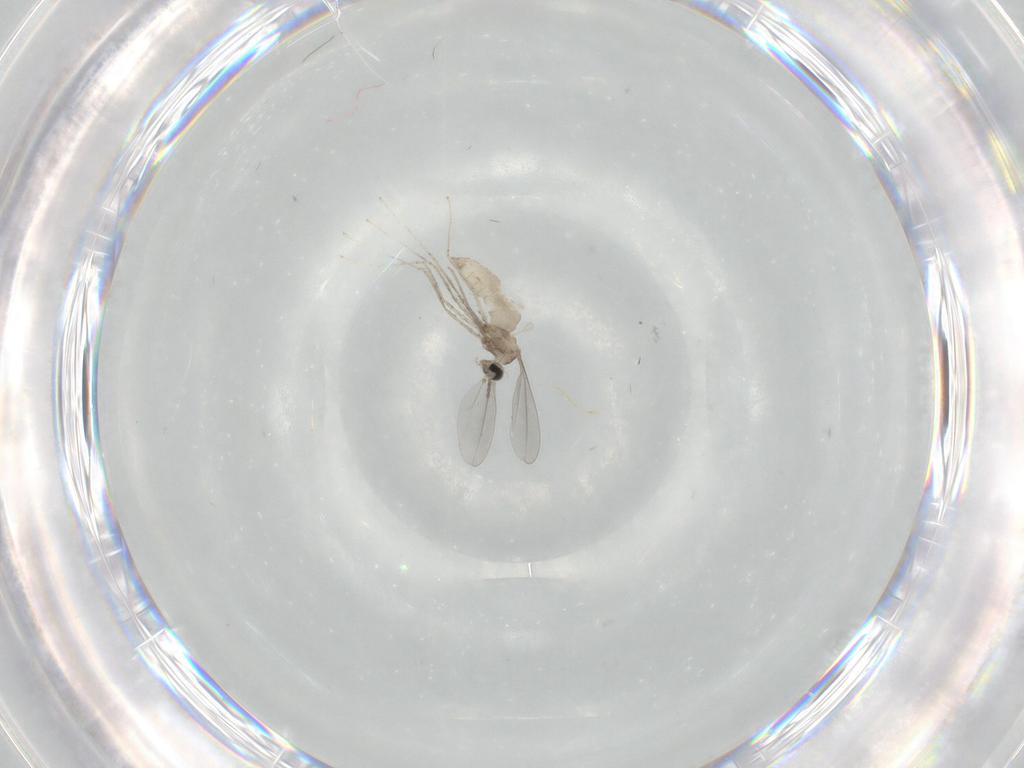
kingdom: Animalia
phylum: Arthropoda
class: Insecta
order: Diptera
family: Cecidomyiidae
